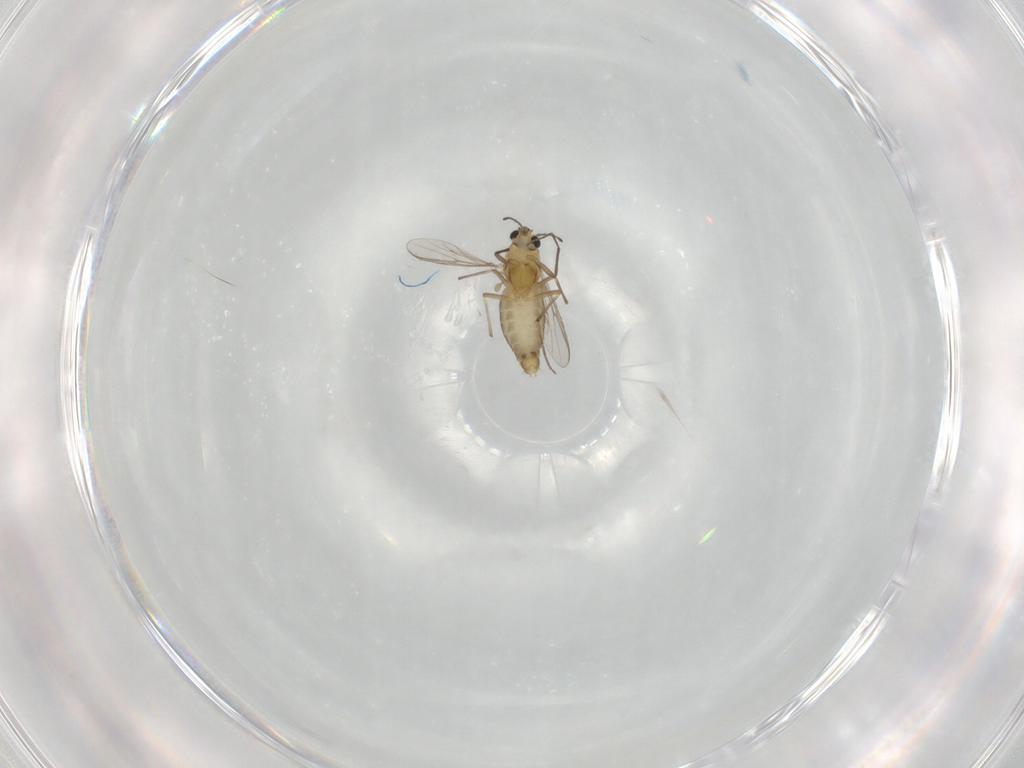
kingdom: Animalia
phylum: Arthropoda
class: Insecta
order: Diptera
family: Chironomidae
